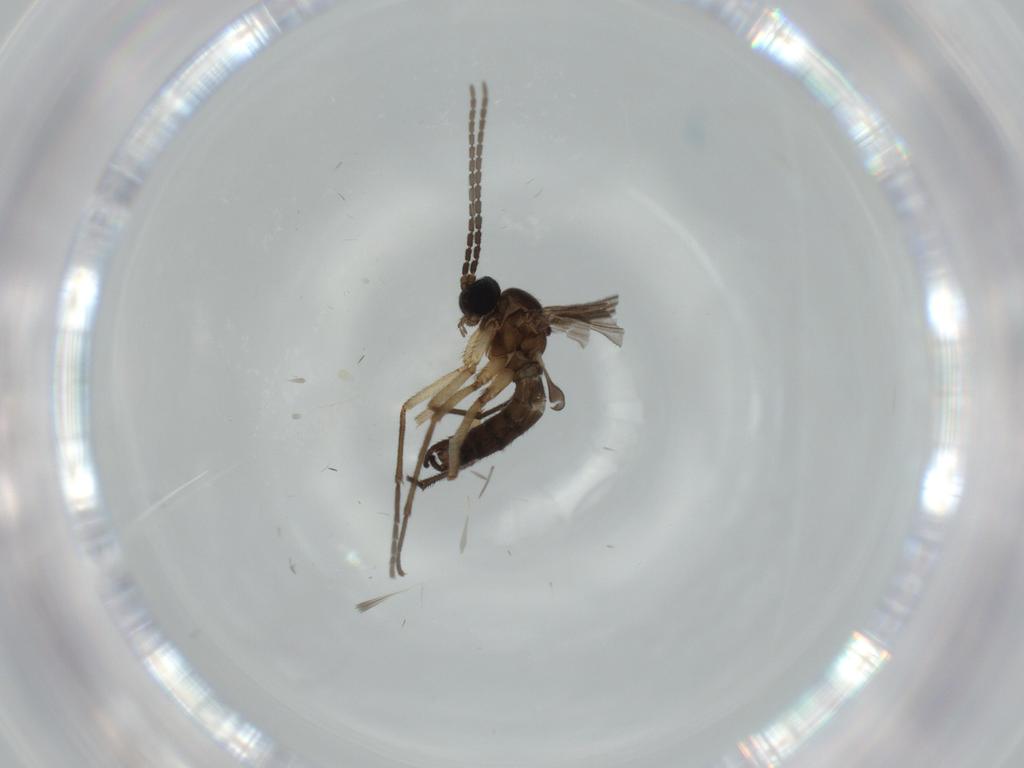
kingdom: Animalia
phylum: Arthropoda
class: Insecta
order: Diptera
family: Sciaridae
